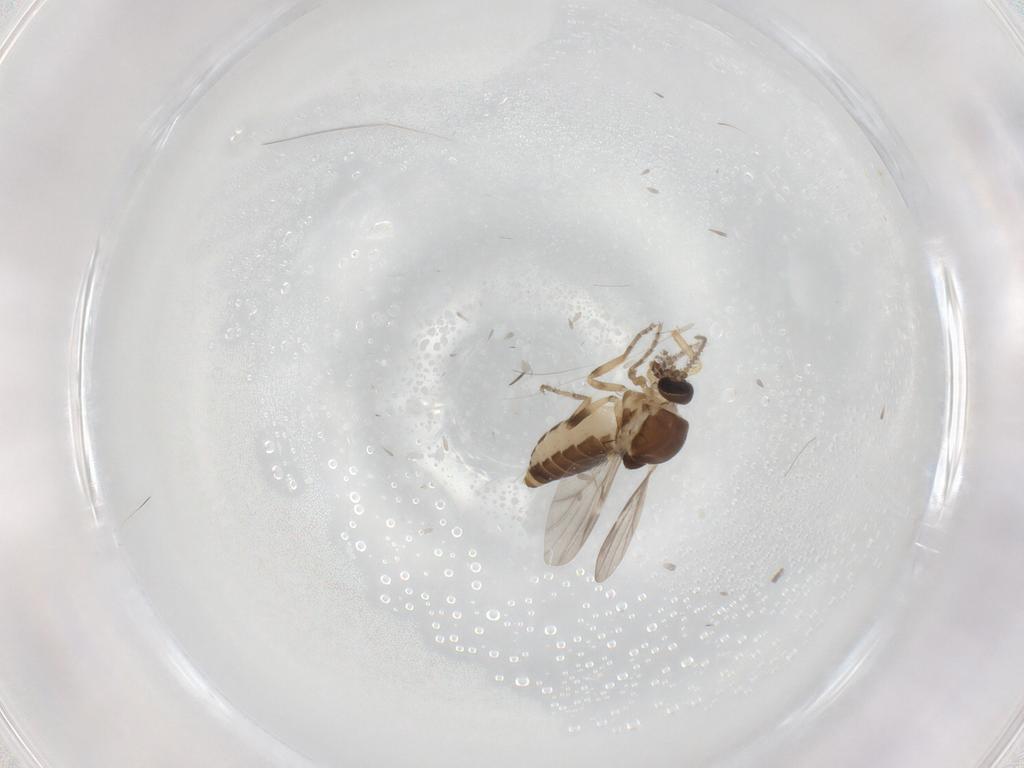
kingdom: Animalia
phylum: Arthropoda
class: Insecta
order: Diptera
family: Ceratopogonidae
